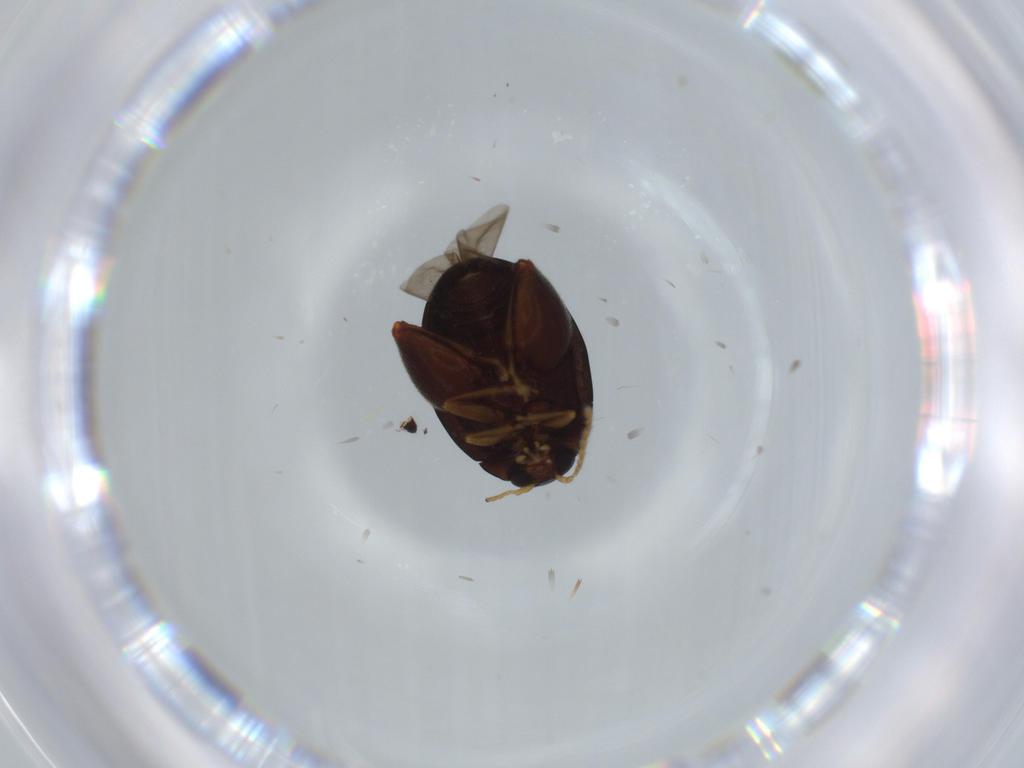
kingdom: Animalia
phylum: Arthropoda
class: Insecta
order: Coleoptera
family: Chrysomelidae
